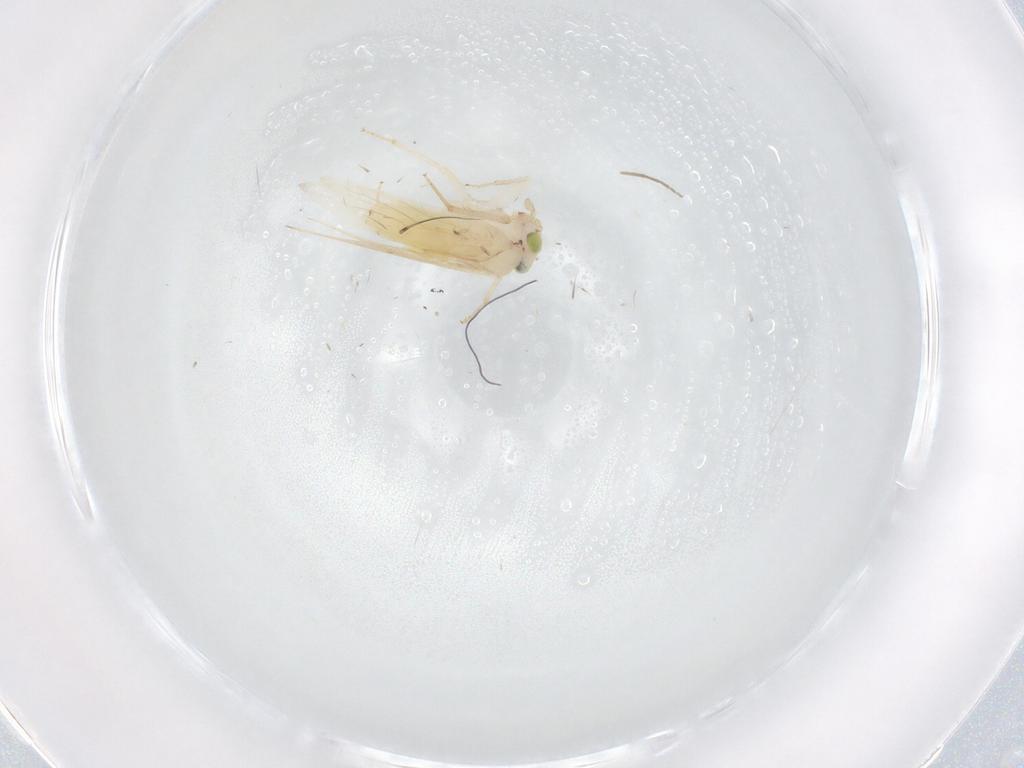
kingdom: Animalia
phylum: Arthropoda
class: Insecta
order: Psocodea
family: Lepidopsocidae
